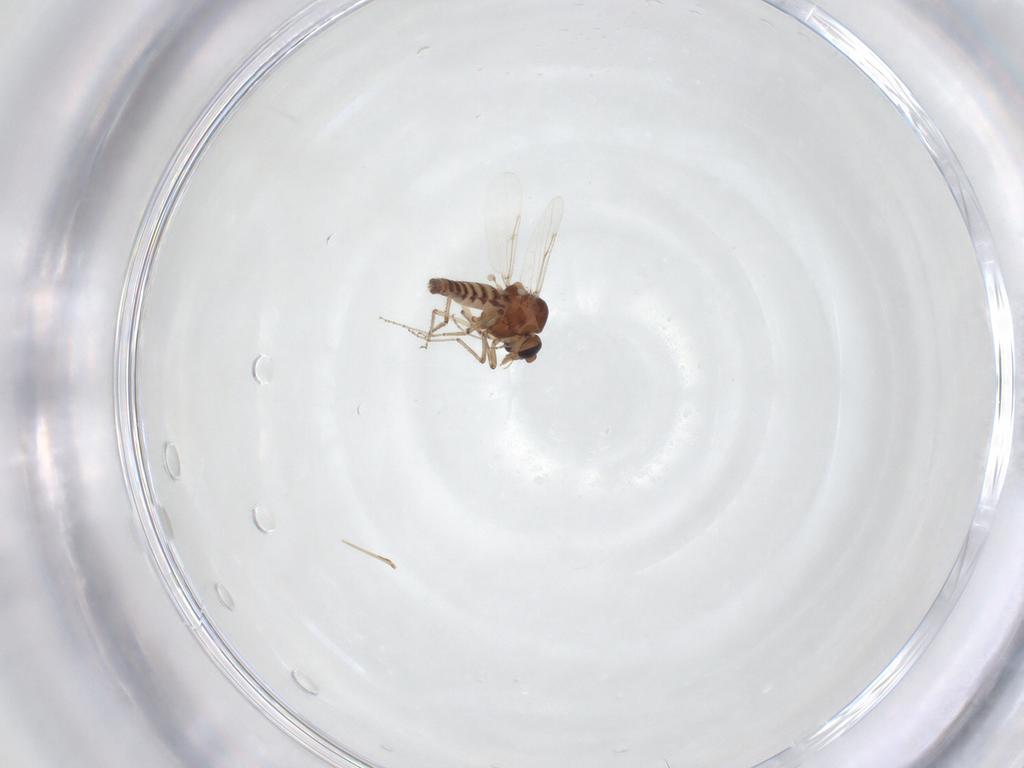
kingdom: Animalia
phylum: Arthropoda
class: Insecta
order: Diptera
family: Ceratopogonidae
